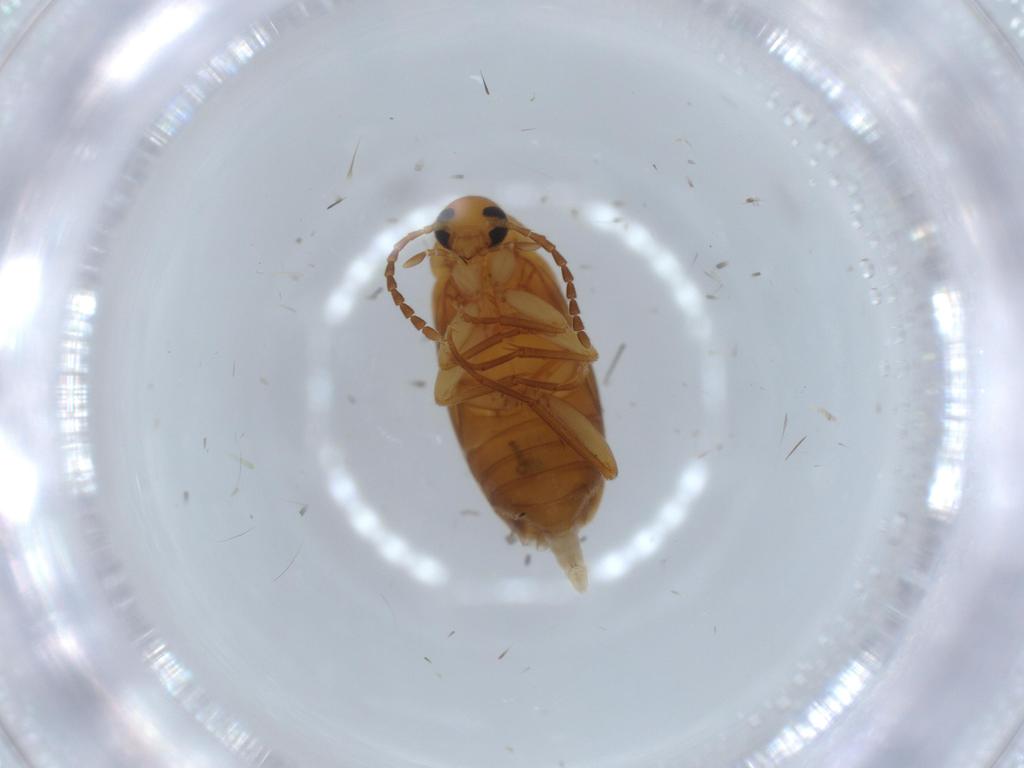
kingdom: Animalia
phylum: Arthropoda
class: Insecta
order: Coleoptera
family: Scraptiidae
